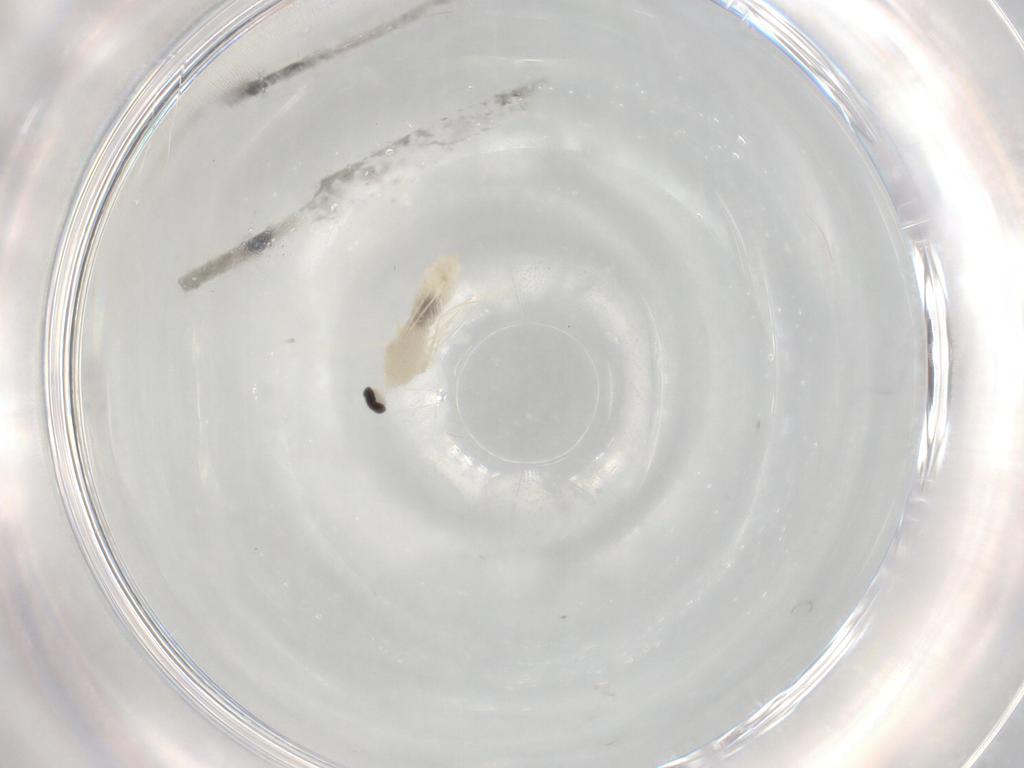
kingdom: Animalia
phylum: Arthropoda
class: Insecta
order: Diptera
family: Cecidomyiidae
